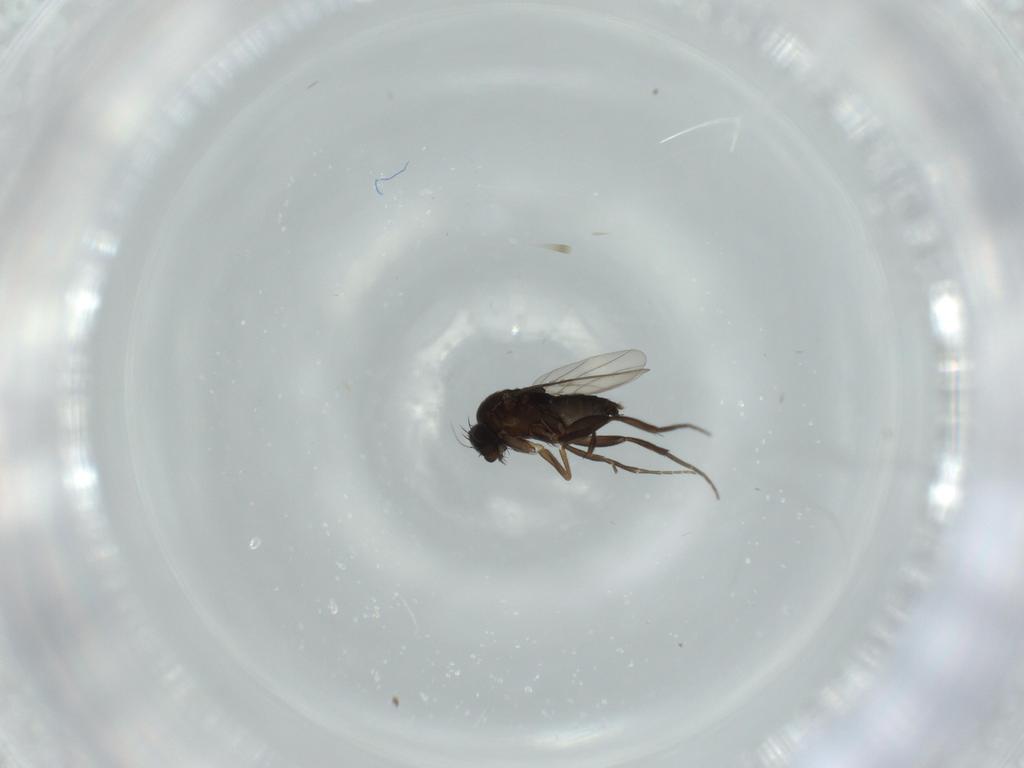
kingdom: Animalia
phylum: Arthropoda
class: Insecta
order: Diptera
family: Phoridae
